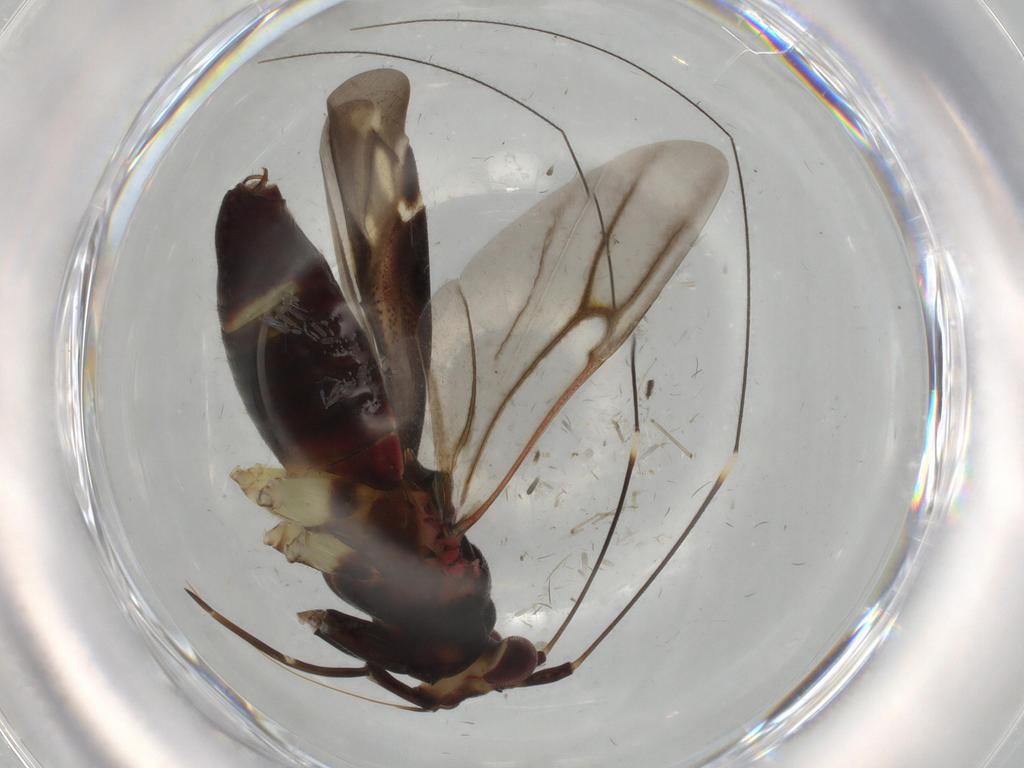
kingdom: Animalia
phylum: Arthropoda
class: Insecta
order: Hemiptera
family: Miridae
